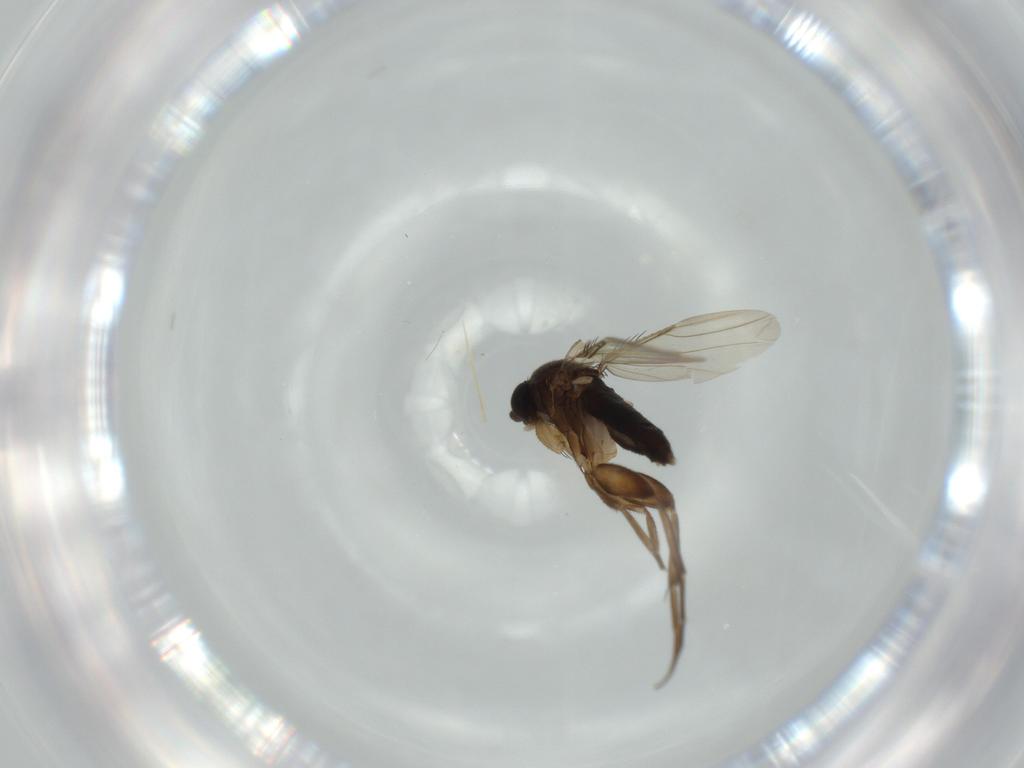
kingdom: Animalia
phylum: Arthropoda
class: Insecta
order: Diptera
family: Phoridae
